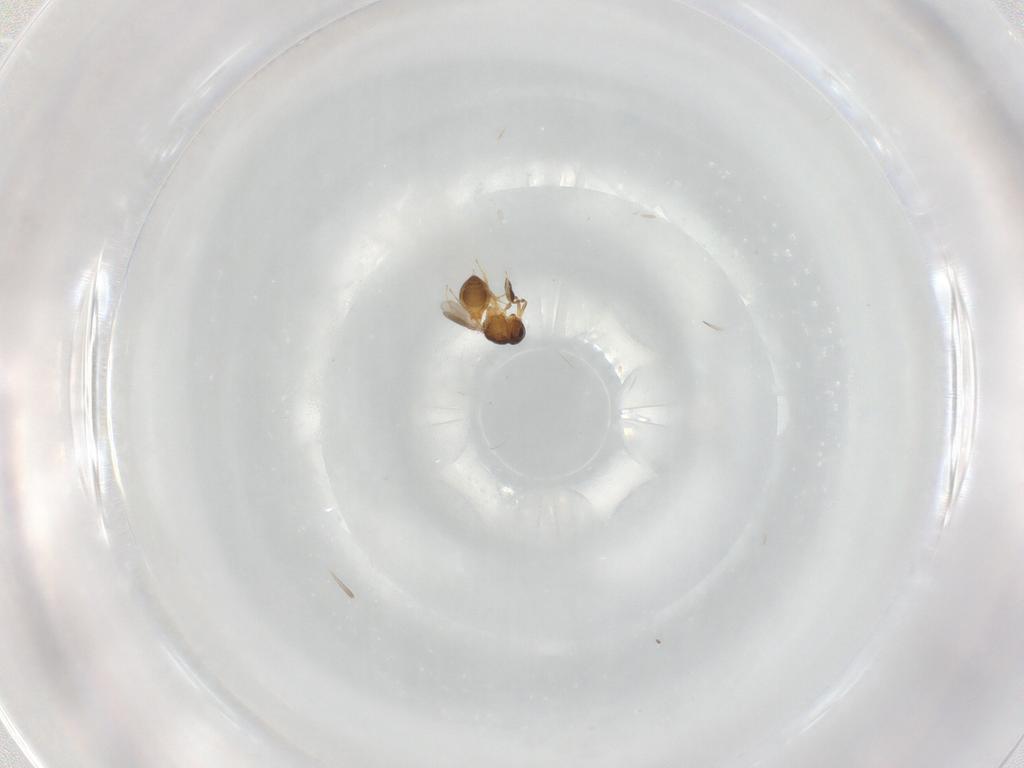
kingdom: Animalia
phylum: Arthropoda
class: Insecta
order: Hymenoptera
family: Scelionidae
